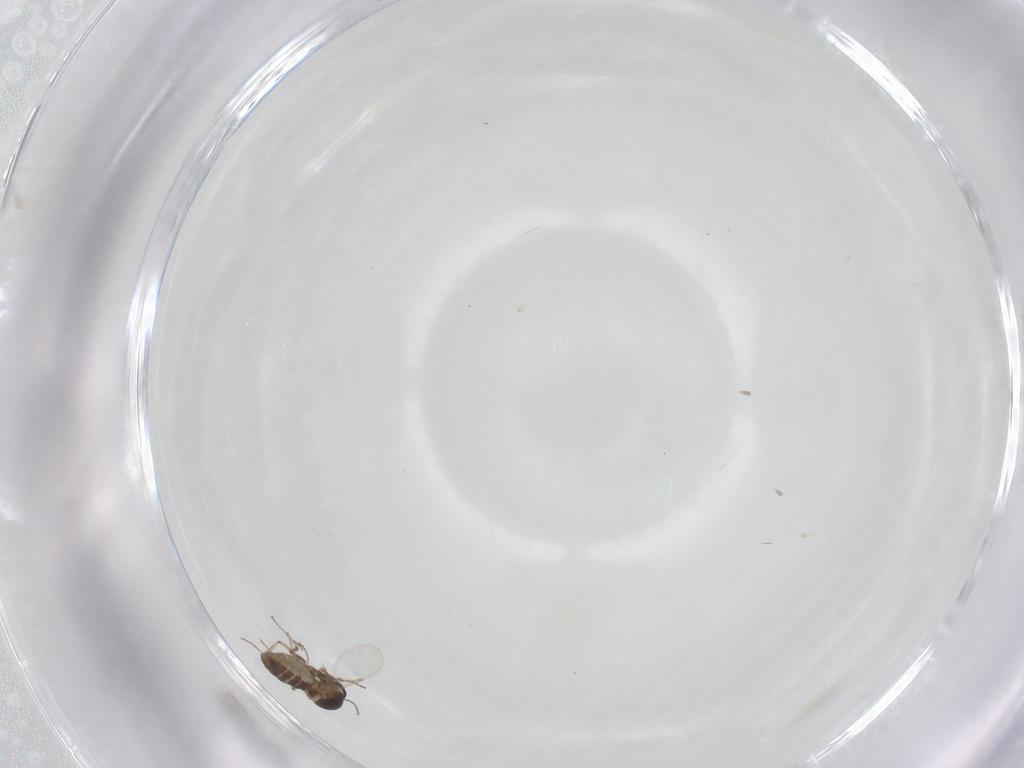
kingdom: Animalia
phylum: Arthropoda
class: Insecta
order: Diptera
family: Ceratopogonidae
